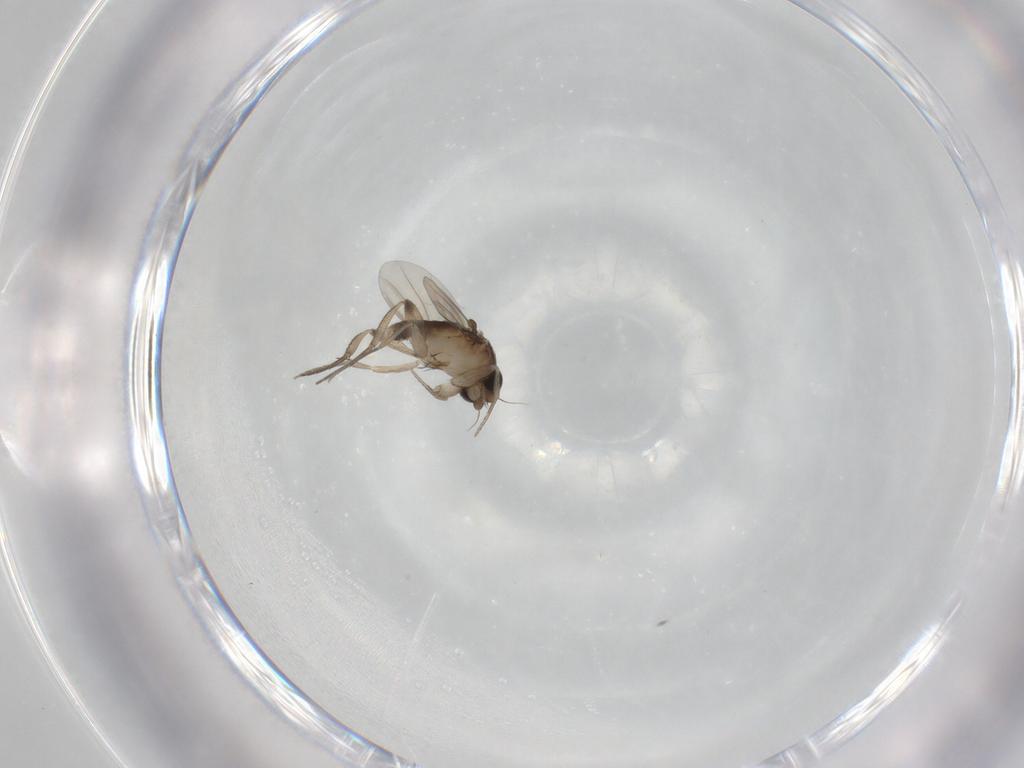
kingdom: Animalia
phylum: Arthropoda
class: Insecta
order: Diptera
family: Phoridae
